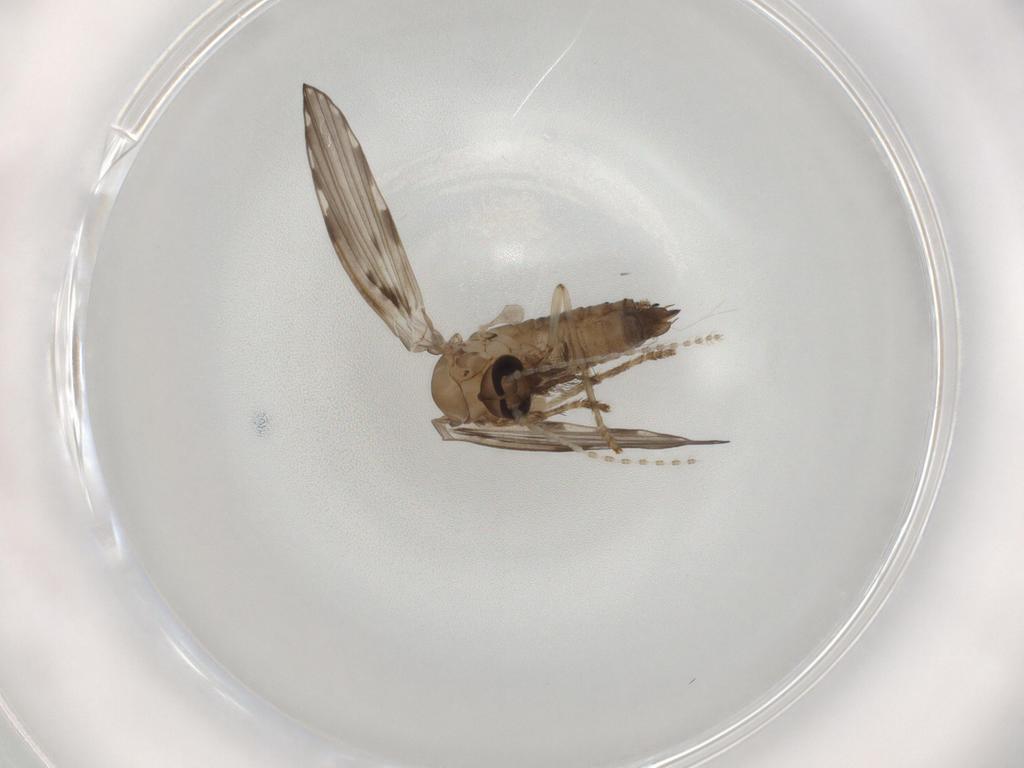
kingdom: Animalia
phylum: Arthropoda
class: Insecta
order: Diptera
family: Psychodidae
